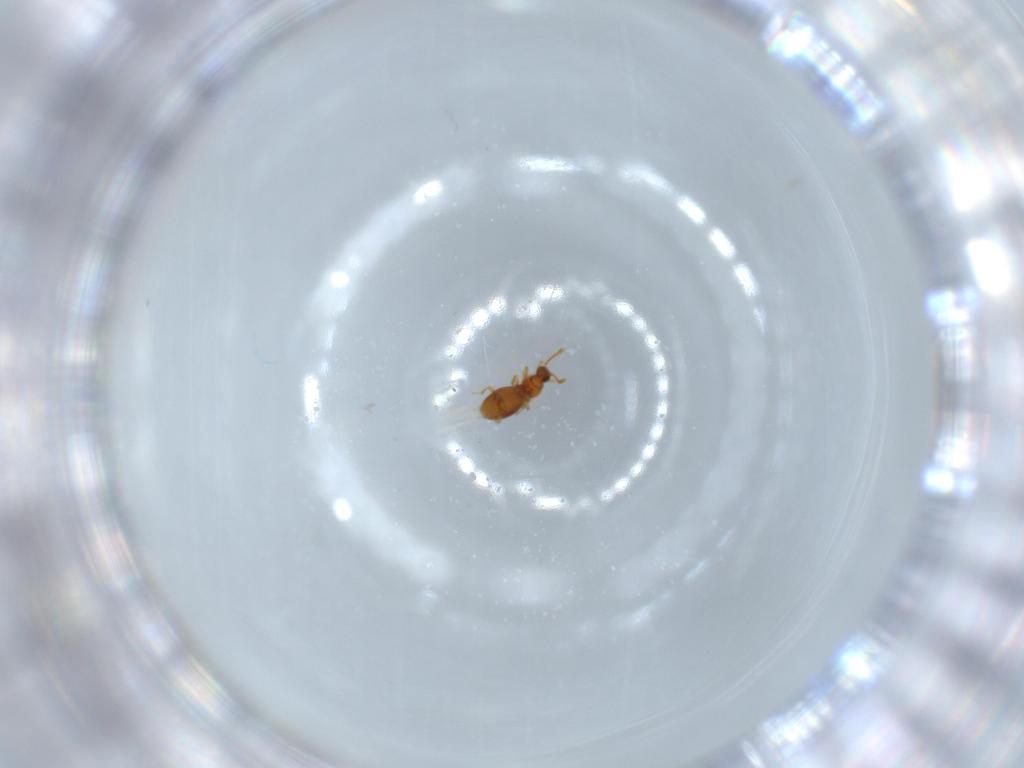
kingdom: Animalia
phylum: Arthropoda
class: Insecta
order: Coleoptera
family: Staphylinidae
